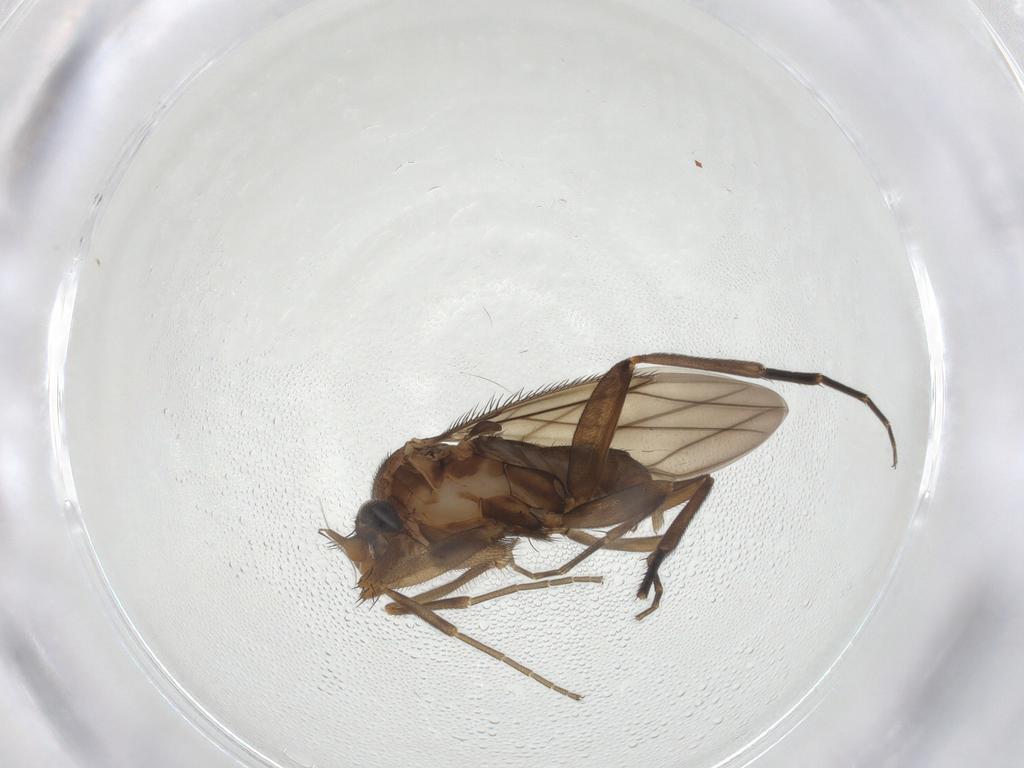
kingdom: Animalia
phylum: Arthropoda
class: Insecta
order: Diptera
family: Phoridae
